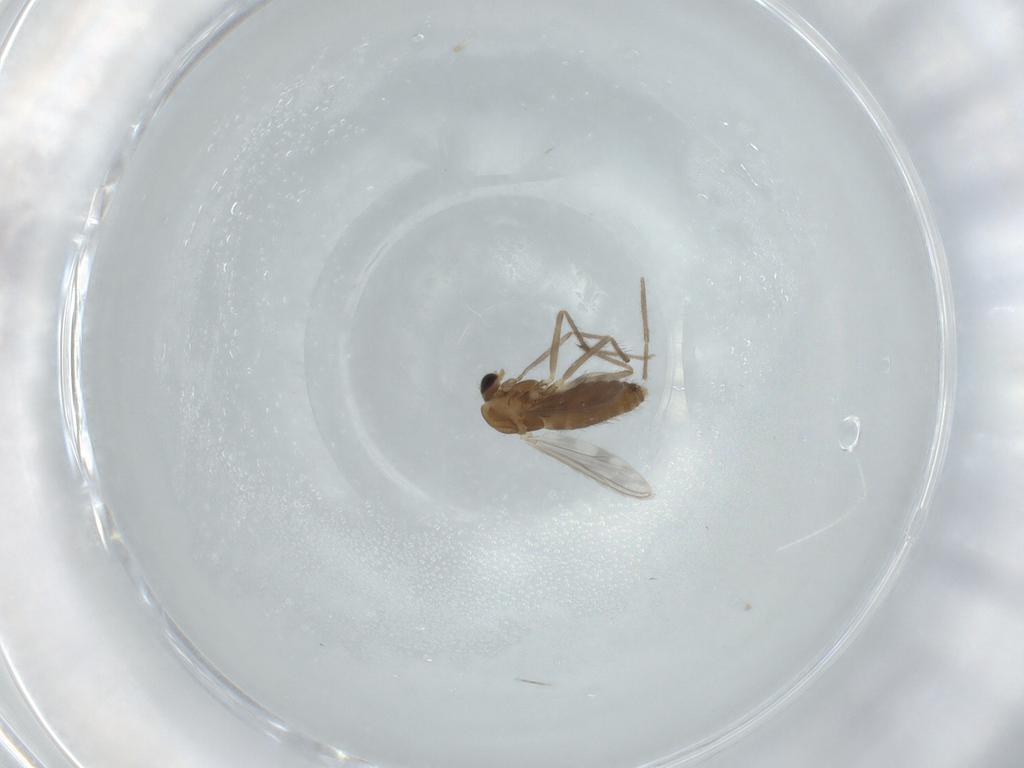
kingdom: Animalia
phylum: Arthropoda
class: Insecta
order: Diptera
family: Chironomidae
